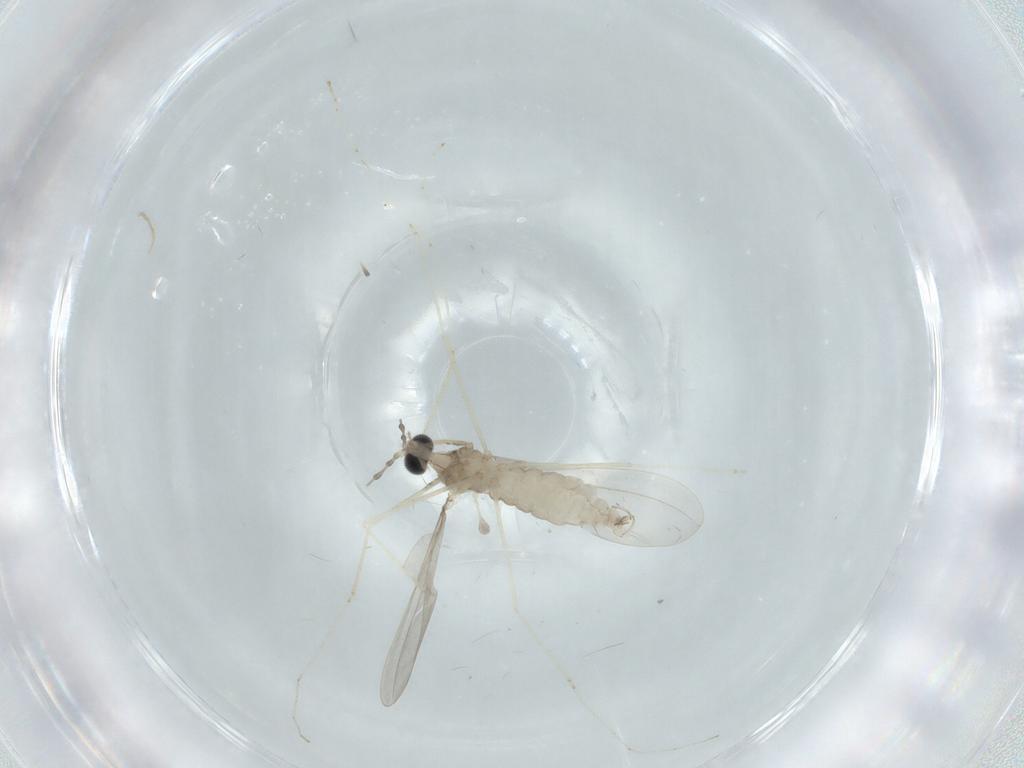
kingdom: Animalia
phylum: Arthropoda
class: Insecta
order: Diptera
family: Cecidomyiidae
